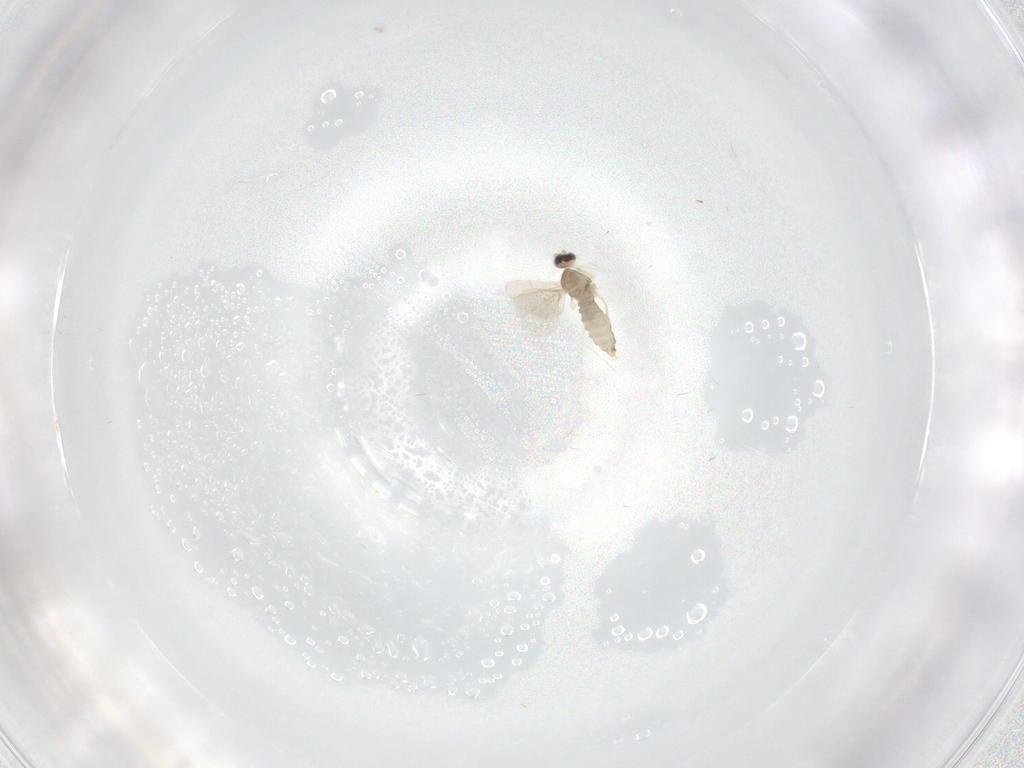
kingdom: Animalia
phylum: Arthropoda
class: Insecta
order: Diptera
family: Cecidomyiidae
